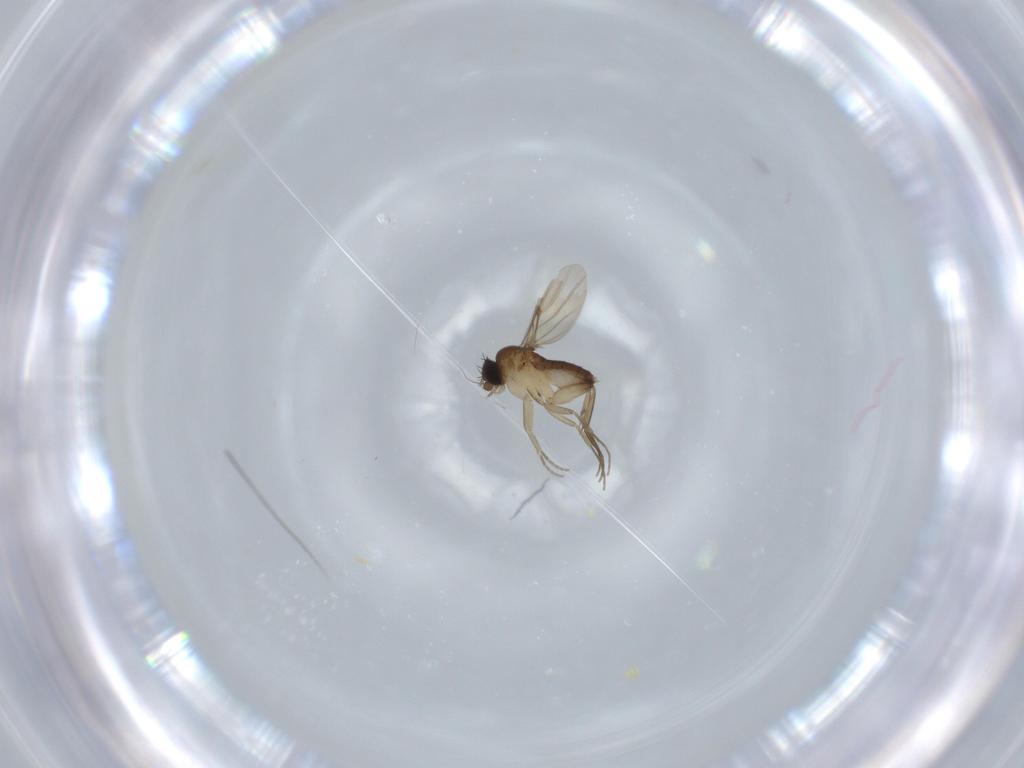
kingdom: Animalia
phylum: Arthropoda
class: Insecta
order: Diptera
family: Phoridae
